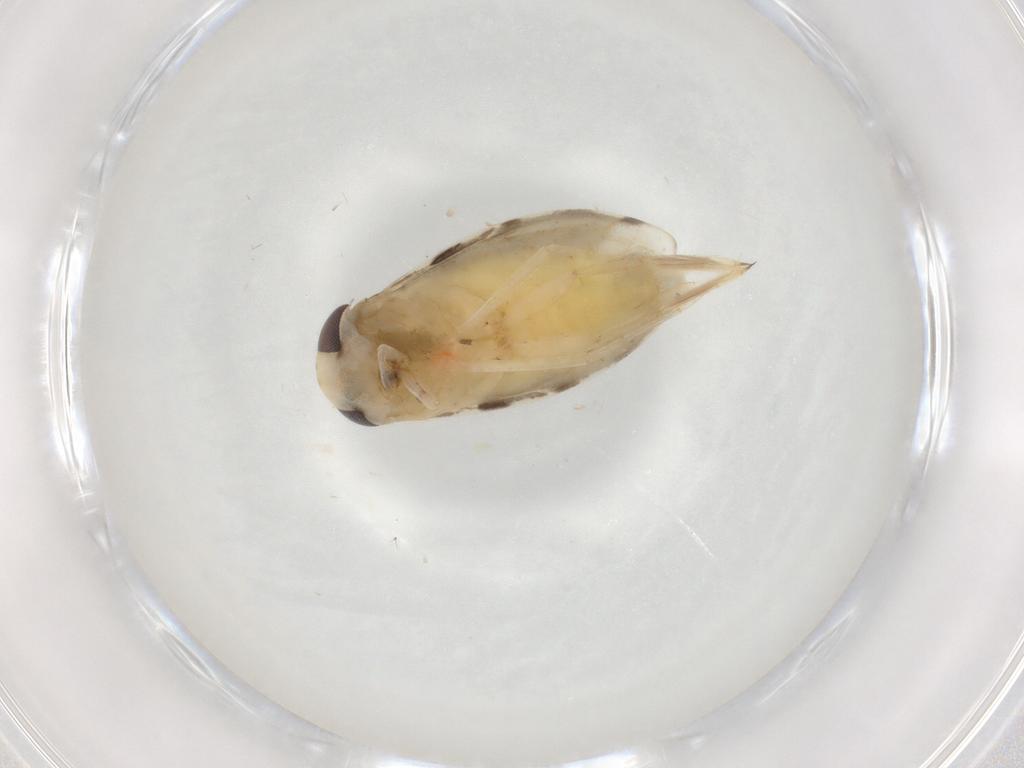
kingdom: Animalia
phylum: Arthropoda
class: Insecta
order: Hemiptera
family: Corixidae
